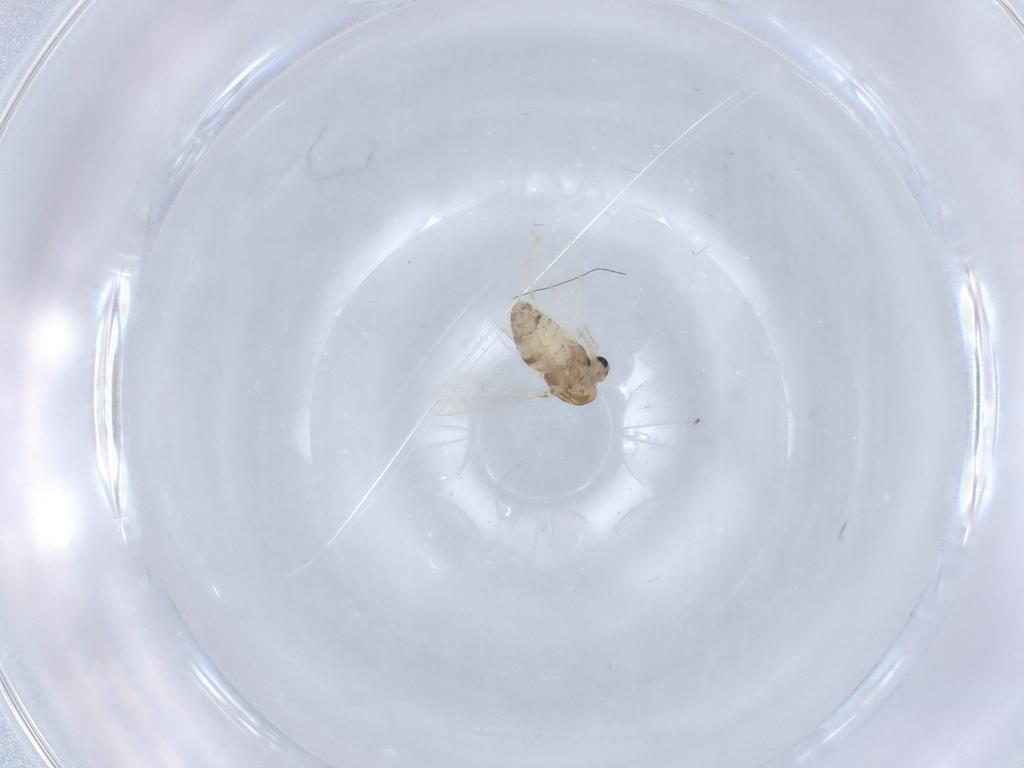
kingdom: Animalia
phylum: Arthropoda
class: Insecta
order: Diptera
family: Chironomidae
